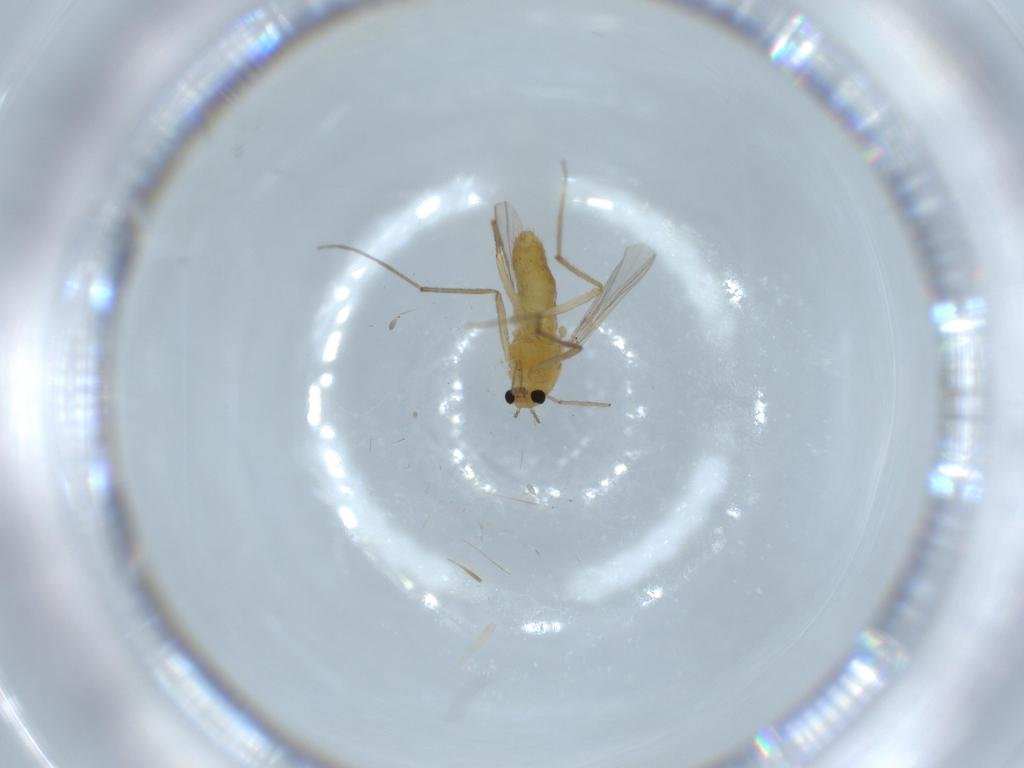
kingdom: Animalia
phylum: Arthropoda
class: Insecta
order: Diptera
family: Chironomidae
